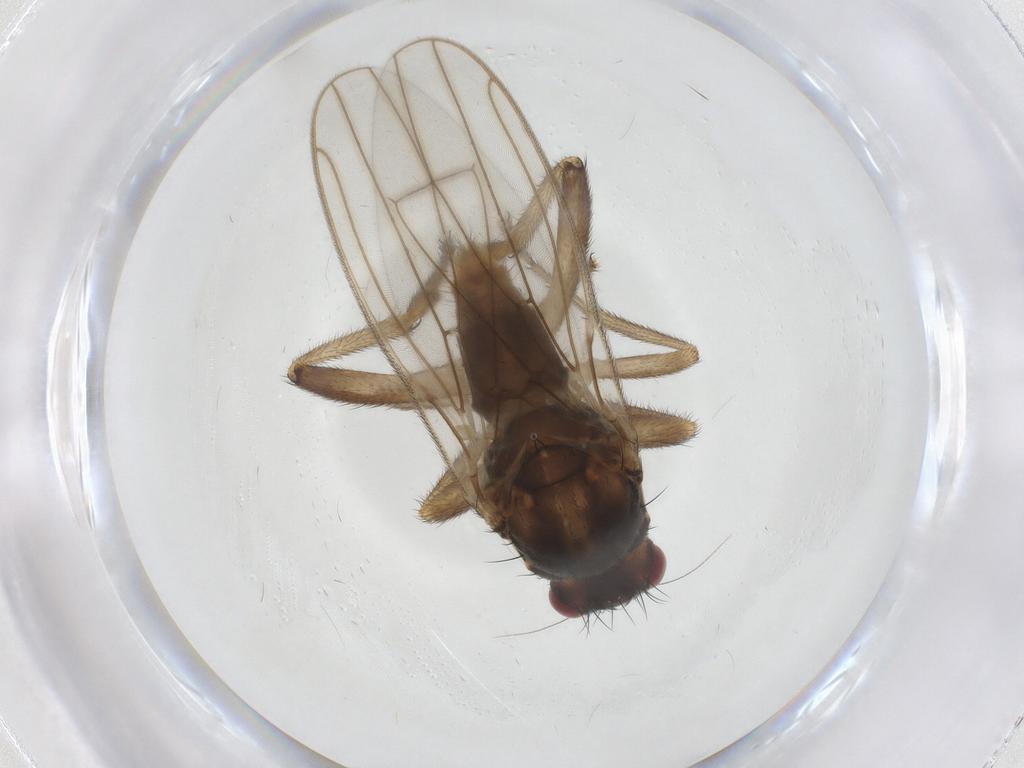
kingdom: Animalia
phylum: Arthropoda
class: Insecta
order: Diptera
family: Sphaeroceridae
